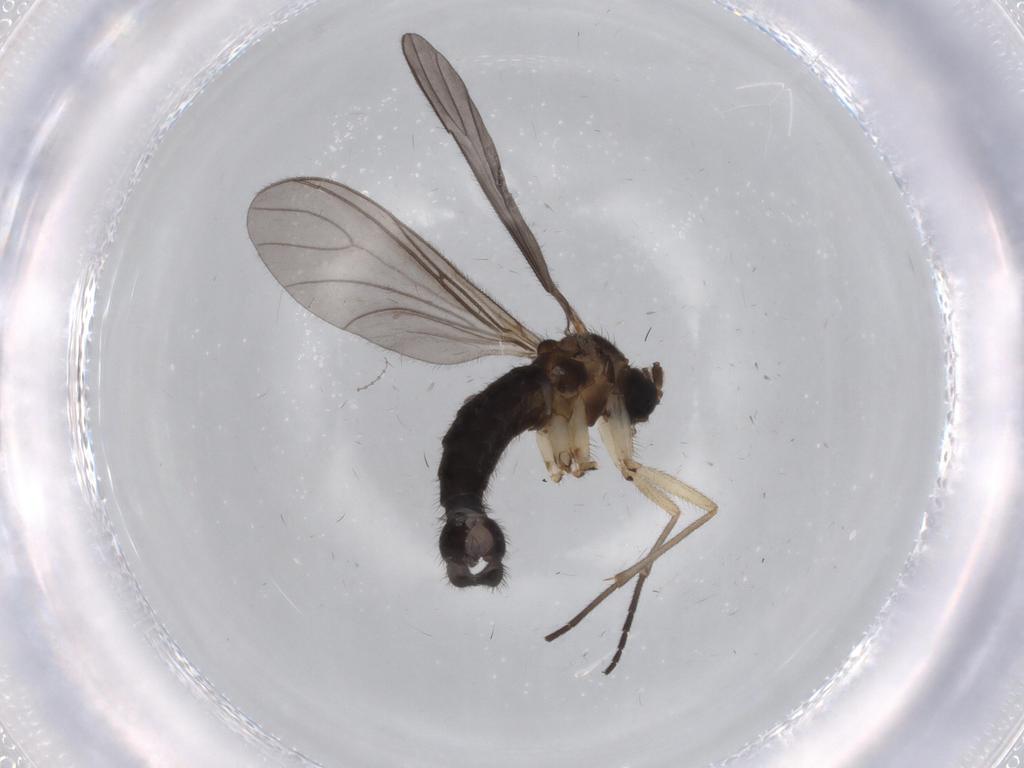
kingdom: Animalia
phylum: Arthropoda
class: Insecta
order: Diptera
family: Sciaridae
